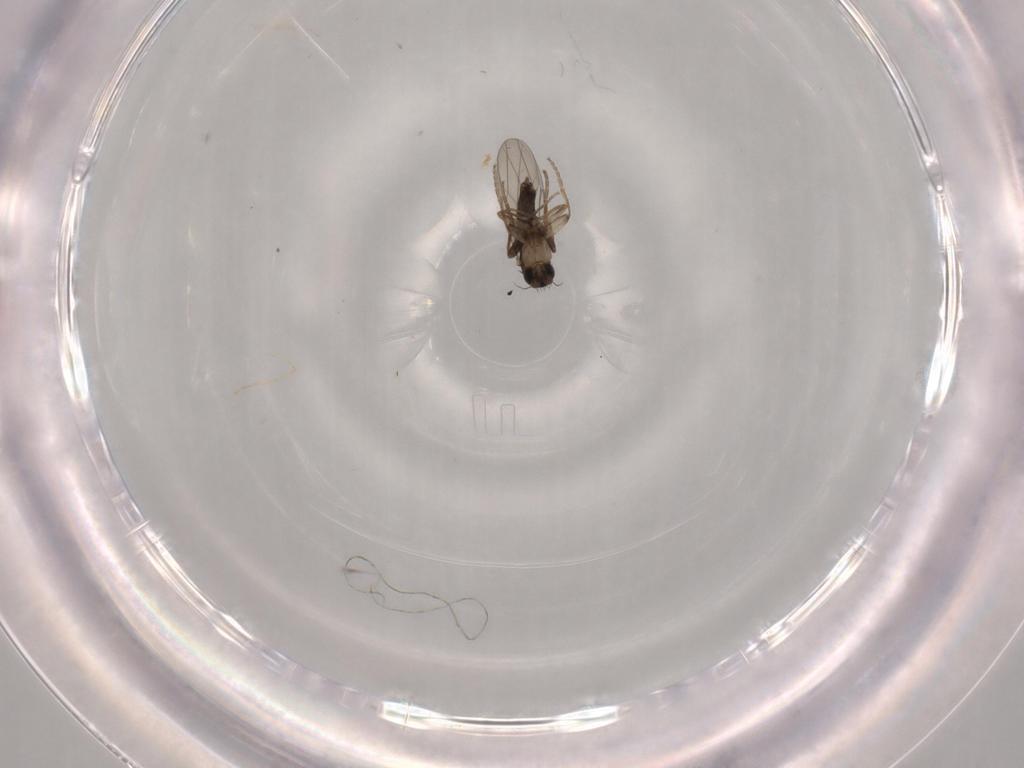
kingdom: Animalia
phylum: Arthropoda
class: Insecta
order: Diptera
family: Phoridae
